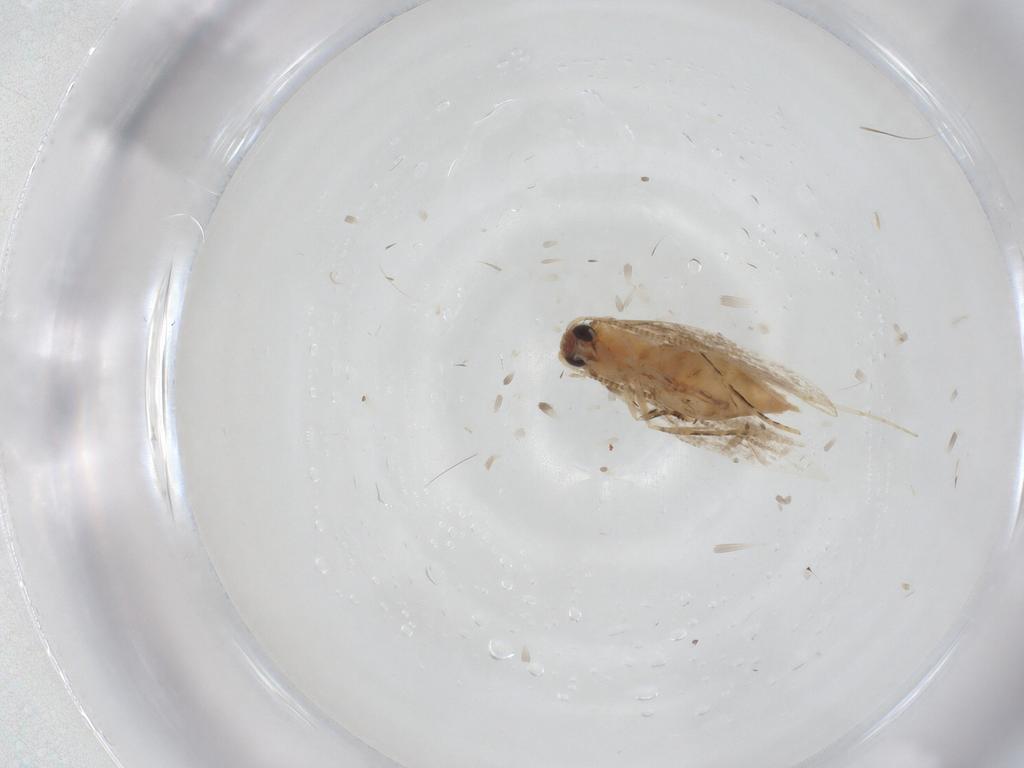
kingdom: Animalia
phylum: Arthropoda
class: Insecta
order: Lepidoptera
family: Tineidae
